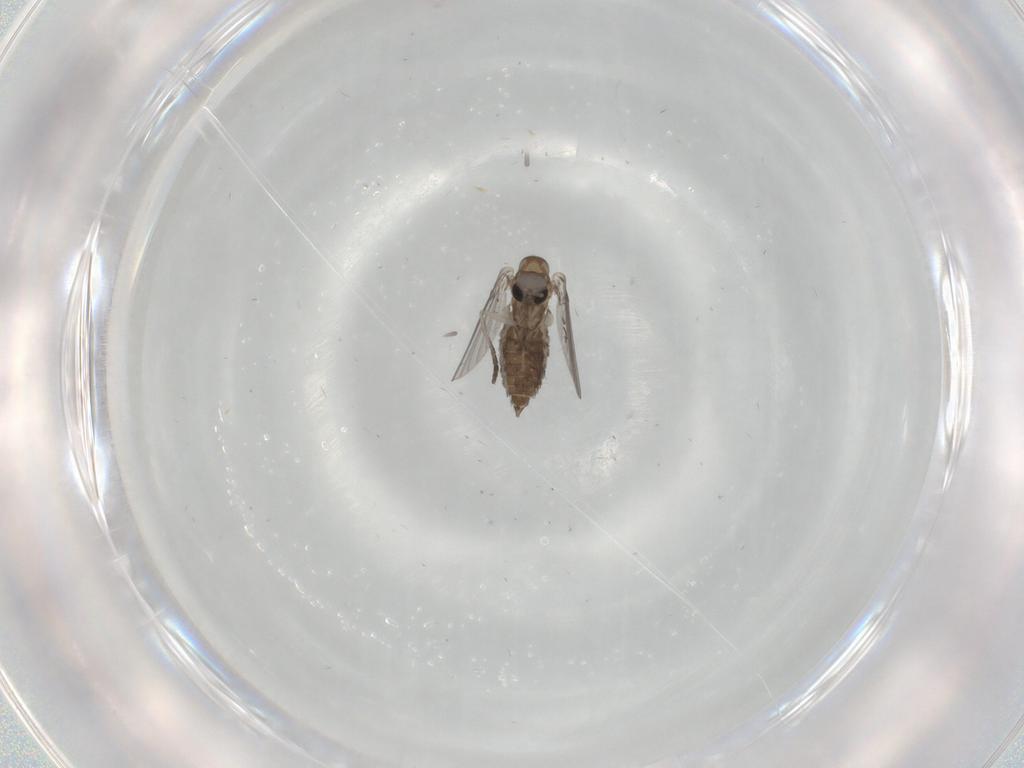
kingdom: Animalia
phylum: Arthropoda
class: Insecta
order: Diptera
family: Psychodidae
